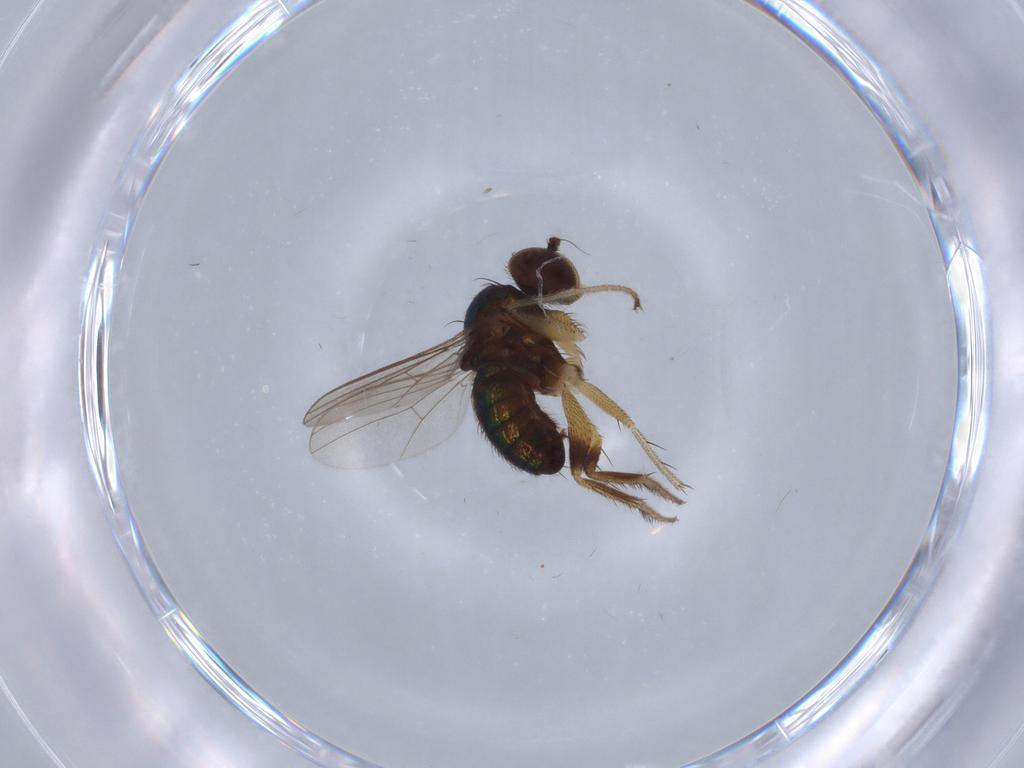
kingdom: Animalia
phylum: Arthropoda
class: Insecta
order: Diptera
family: Dolichopodidae
